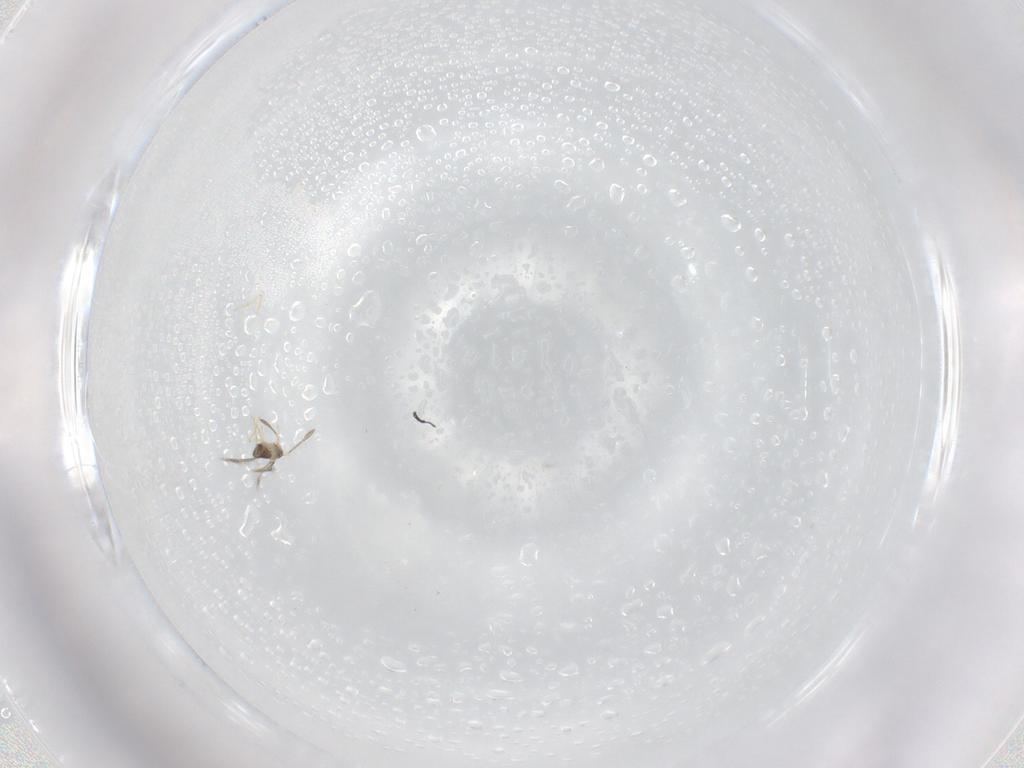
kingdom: Animalia
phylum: Arthropoda
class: Insecta
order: Hymenoptera
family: Mymaridae
